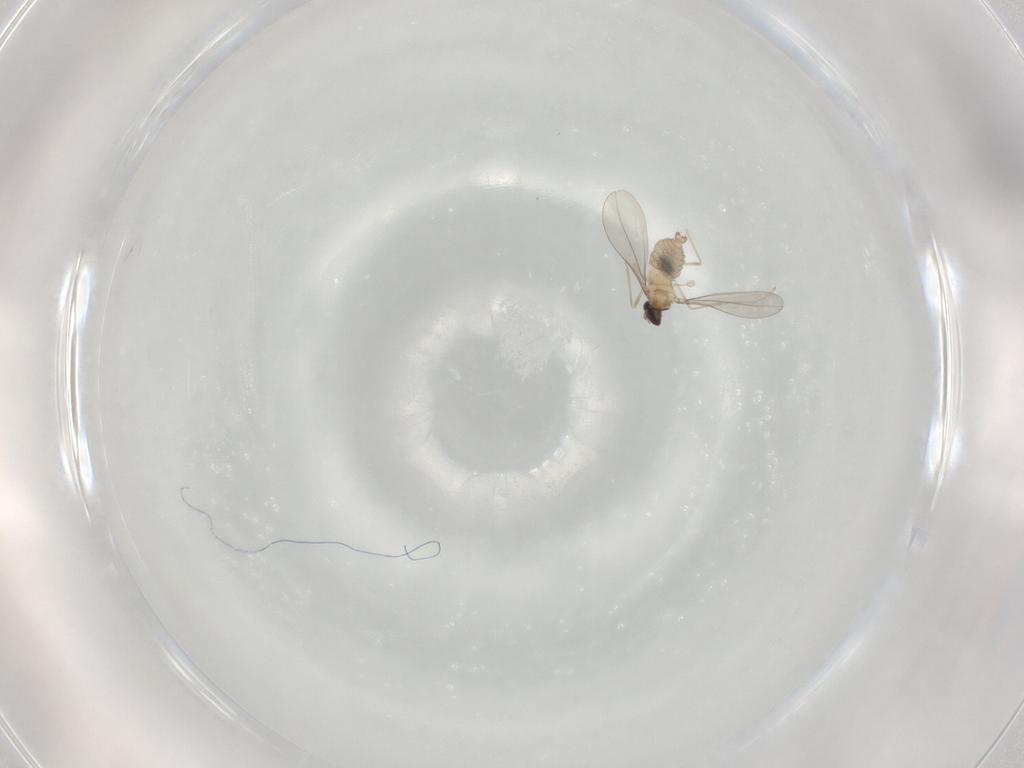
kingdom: Animalia
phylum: Arthropoda
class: Insecta
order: Diptera
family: Cecidomyiidae
